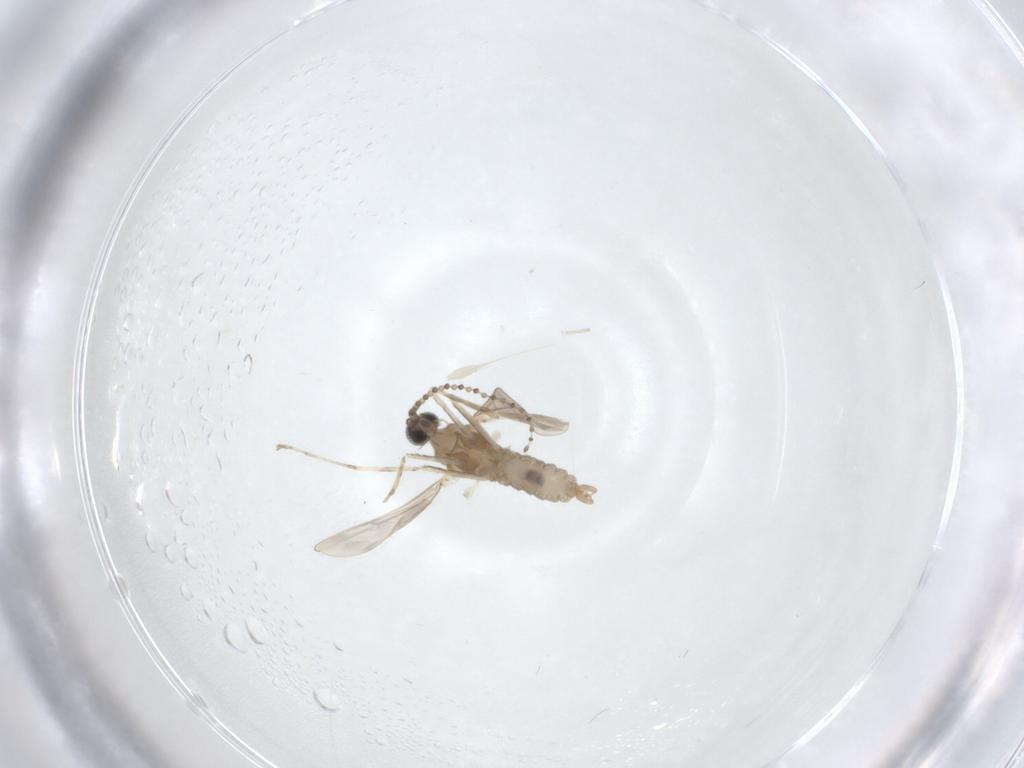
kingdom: Animalia
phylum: Arthropoda
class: Insecta
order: Diptera
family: Cecidomyiidae
